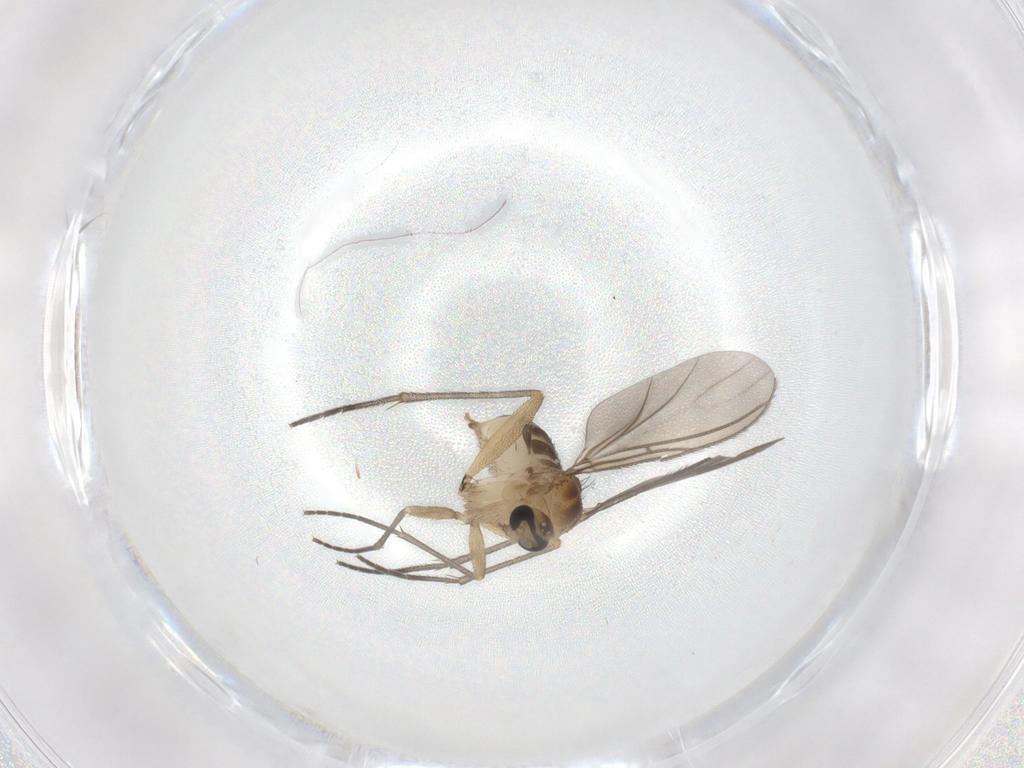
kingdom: Animalia
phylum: Arthropoda
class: Insecta
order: Diptera
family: Sciaridae
